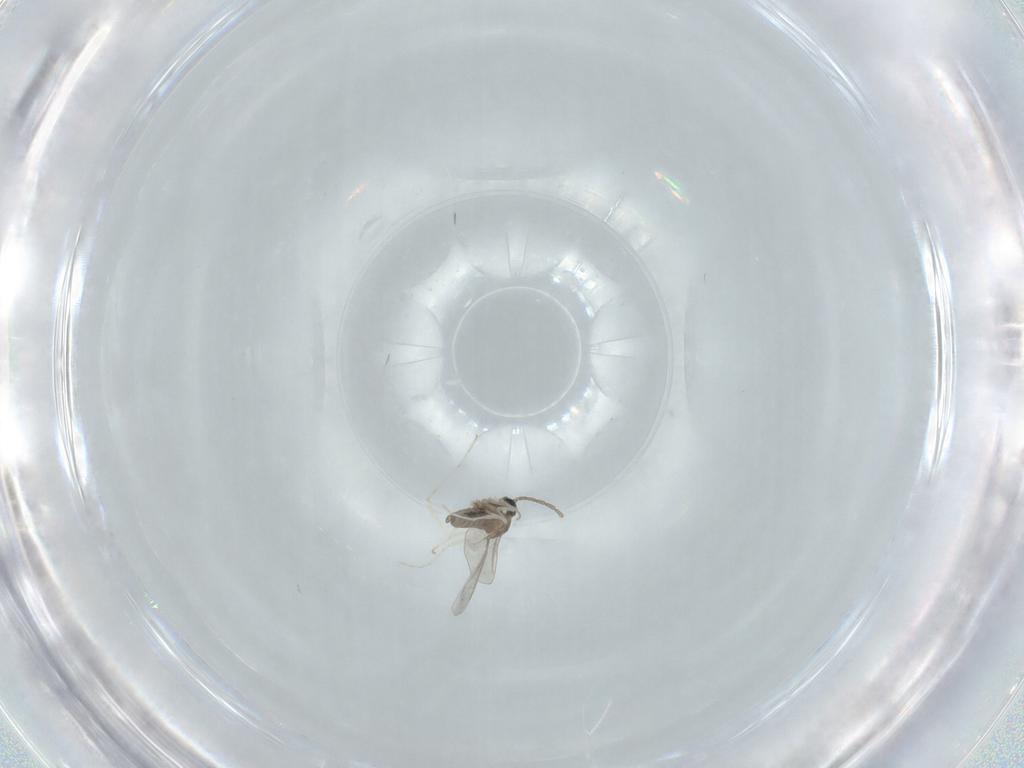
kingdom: Animalia
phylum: Arthropoda
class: Insecta
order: Diptera
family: Cecidomyiidae
